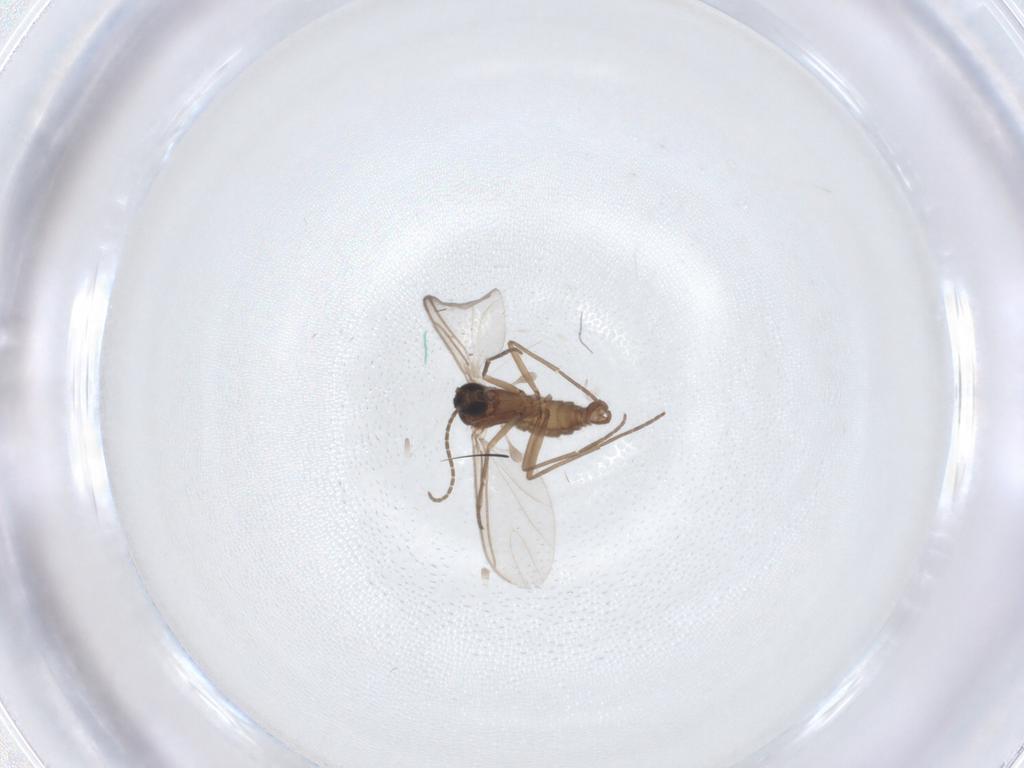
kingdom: Animalia
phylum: Arthropoda
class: Insecta
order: Diptera
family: Sciaridae
